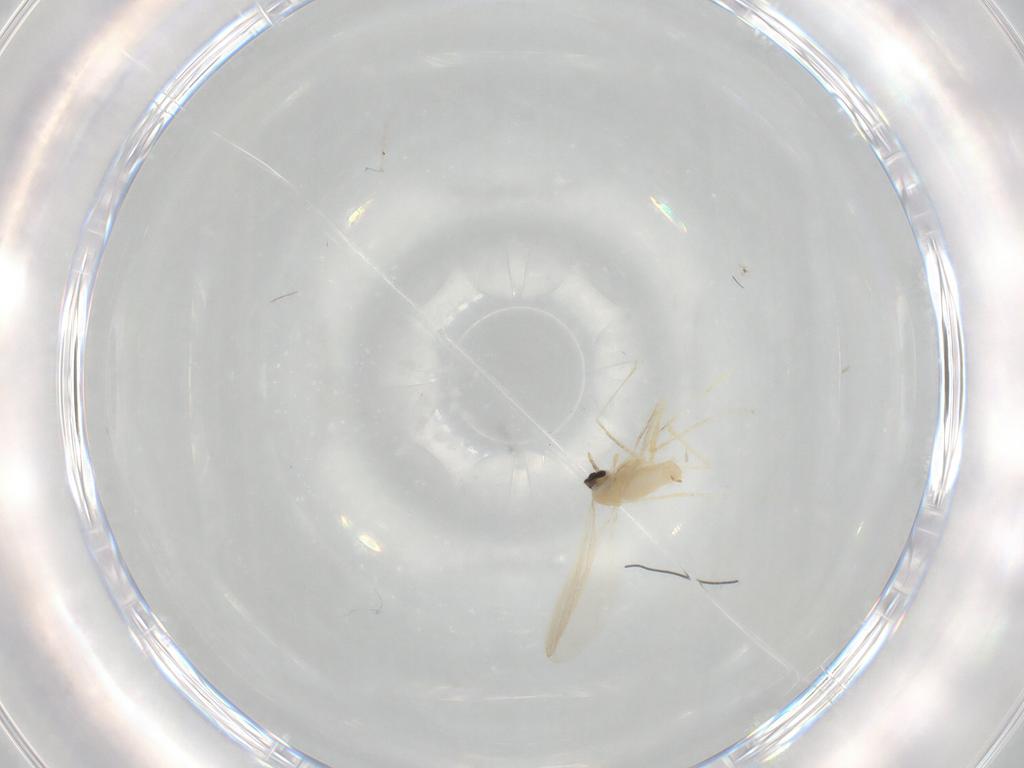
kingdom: Animalia
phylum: Arthropoda
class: Insecta
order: Diptera
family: Cecidomyiidae
